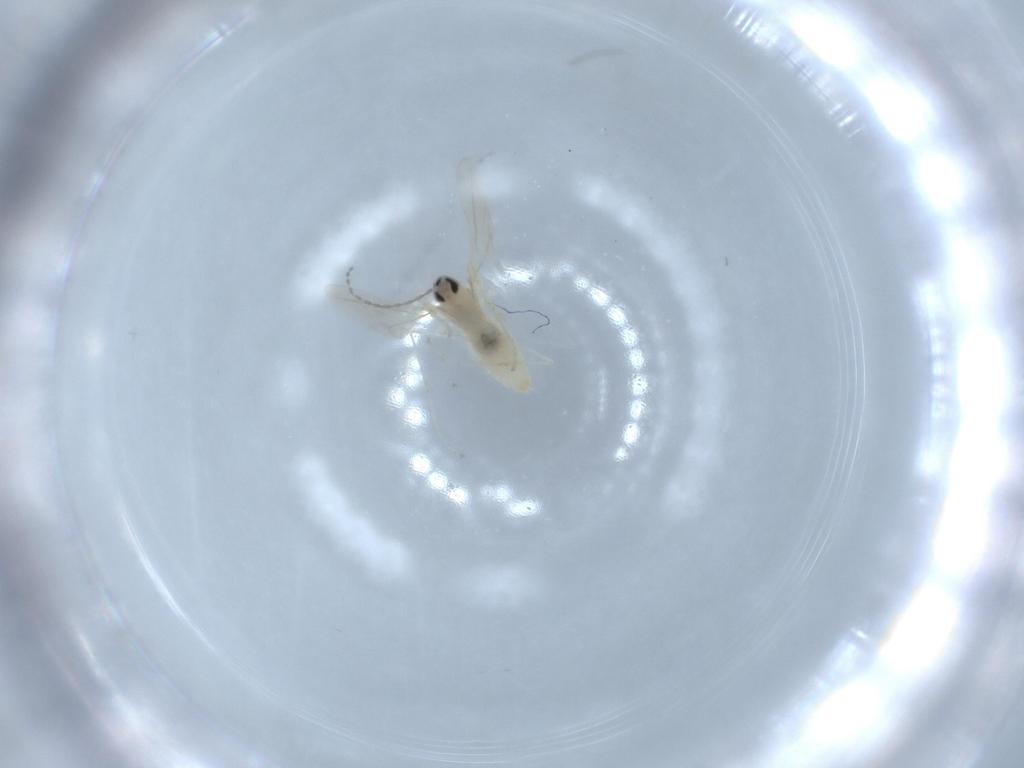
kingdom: Animalia
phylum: Arthropoda
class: Insecta
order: Diptera
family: Cecidomyiidae
